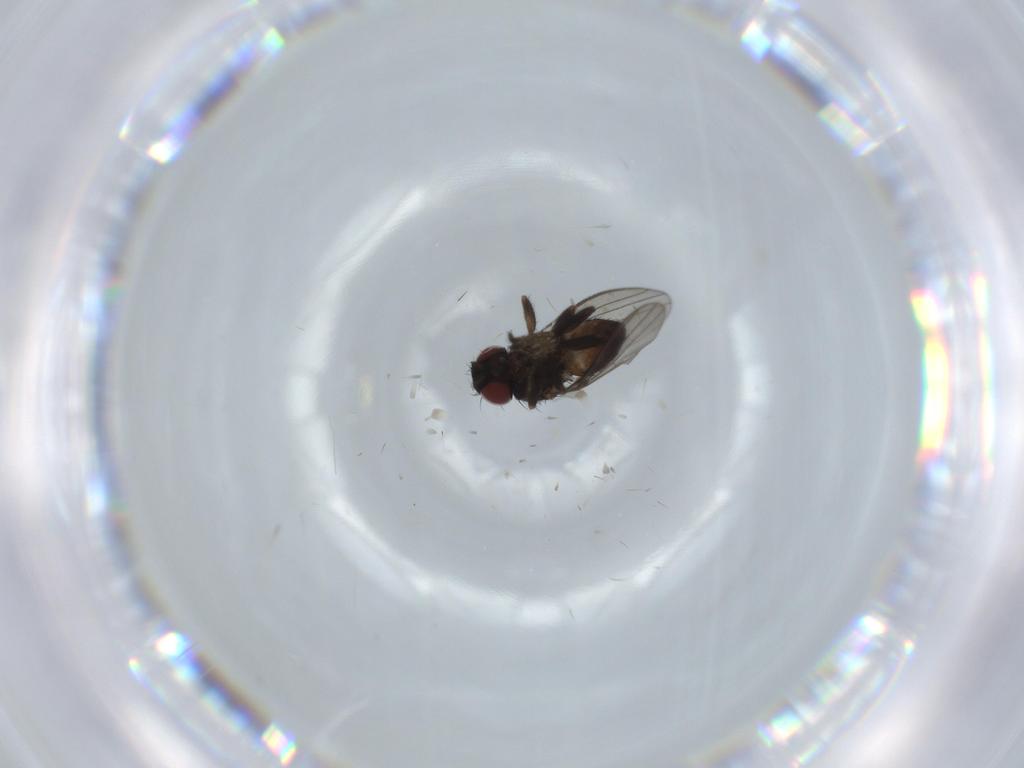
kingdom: Animalia
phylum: Arthropoda
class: Insecta
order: Diptera
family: Milichiidae
